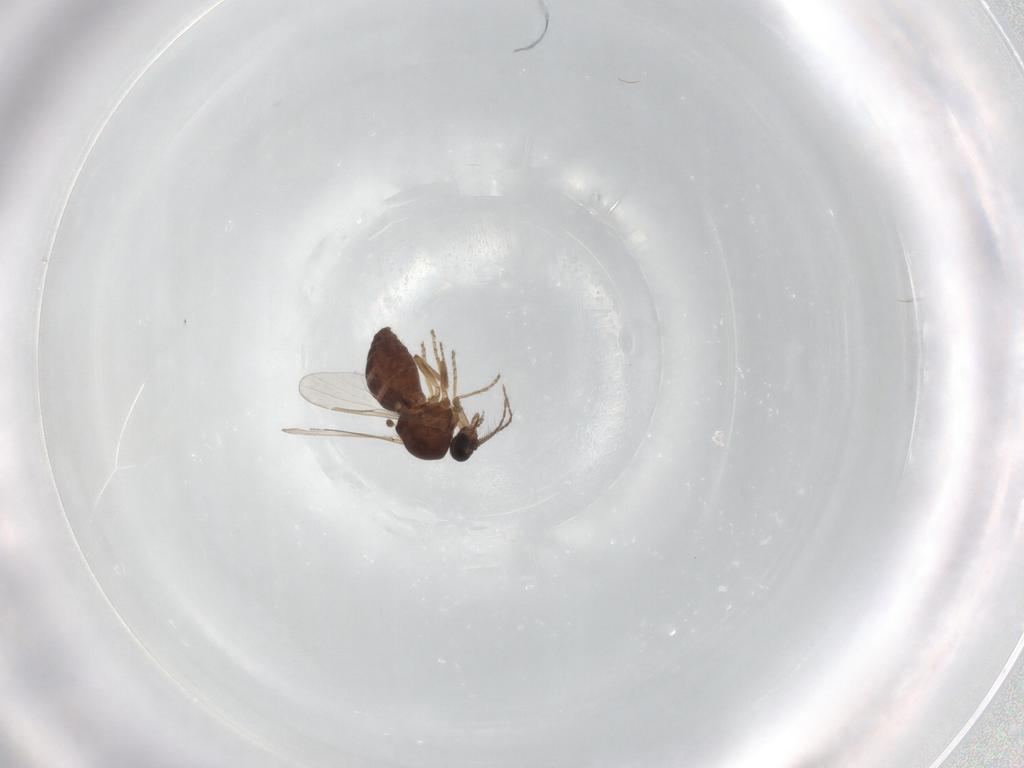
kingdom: Animalia
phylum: Arthropoda
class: Insecta
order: Diptera
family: Ceratopogonidae
